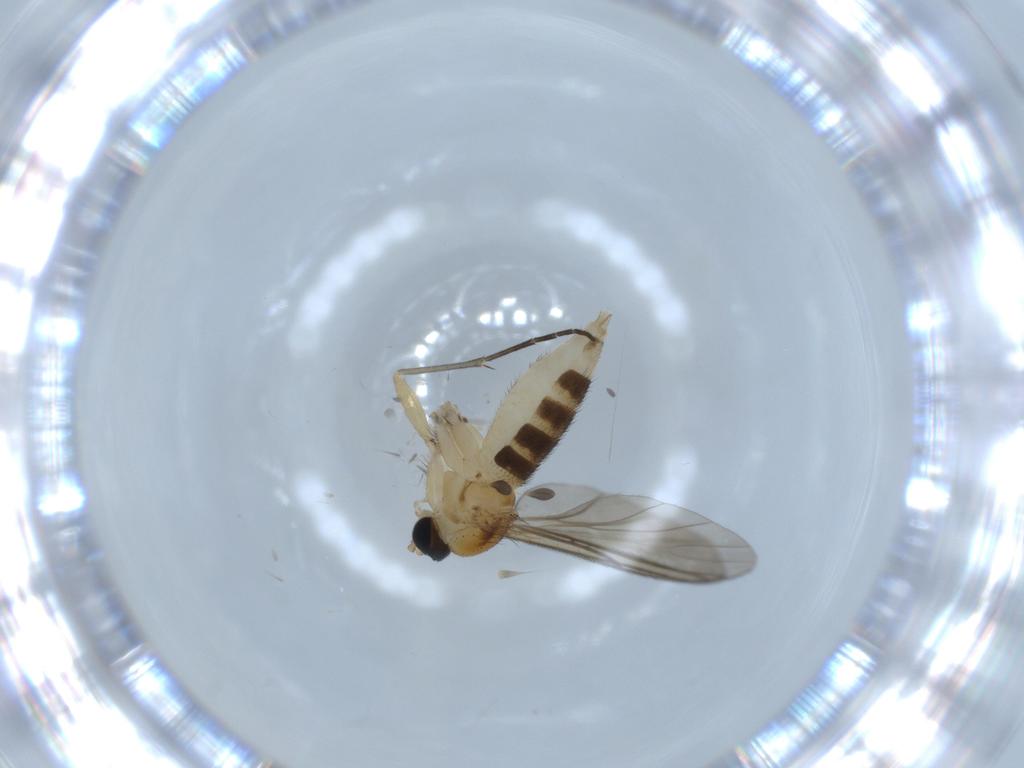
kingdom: Animalia
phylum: Arthropoda
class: Insecta
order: Diptera
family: Sciaridae
